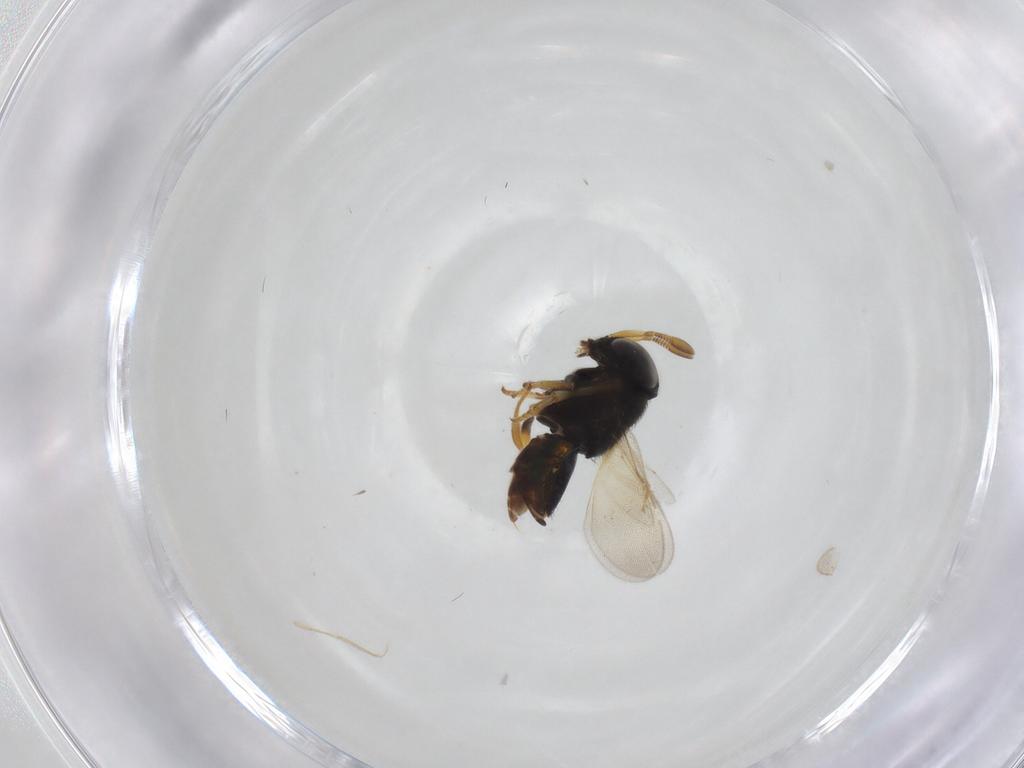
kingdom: Animalia
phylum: Arthropoda
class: Insecta
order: Hymenoptera
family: Encyrtidae
